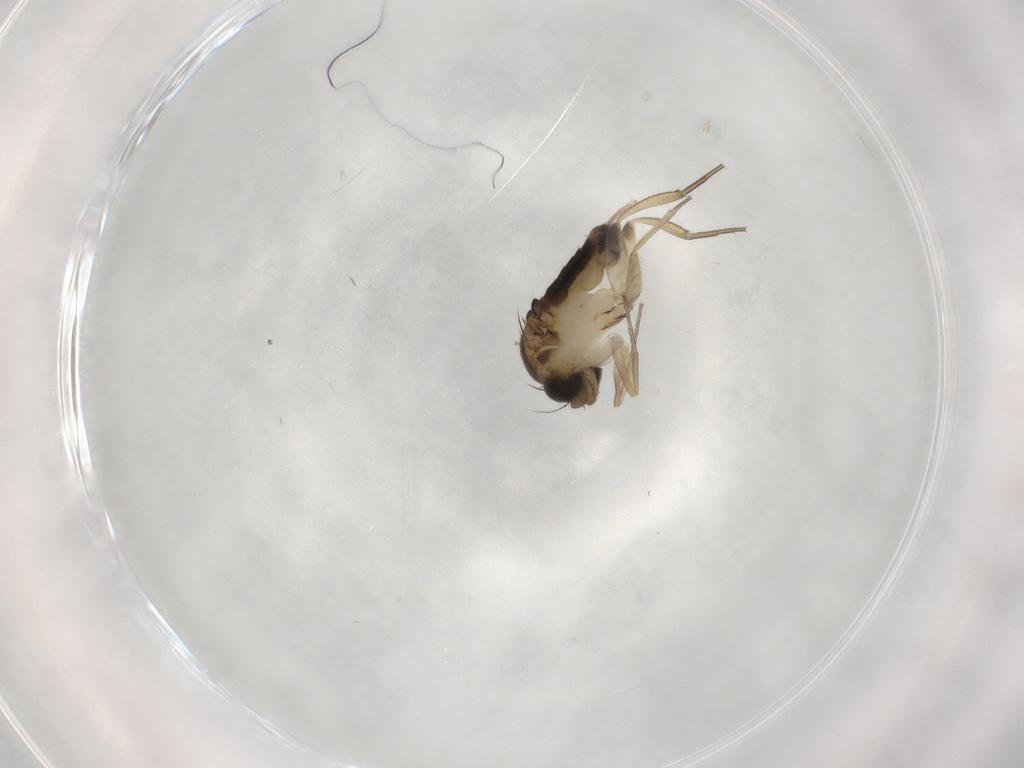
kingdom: Animalia
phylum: Arthropoda
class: Insecta
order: Diptera
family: Phoridae
